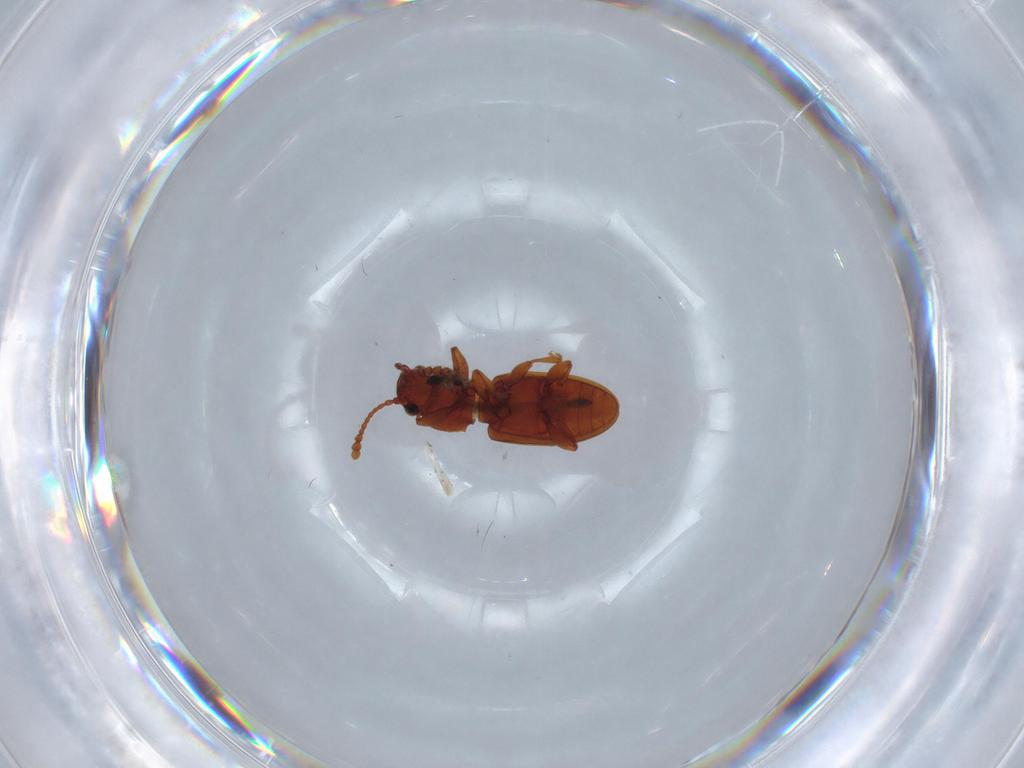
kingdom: Animalia
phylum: Arthropoda
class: Insecta
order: Coleoptera
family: Silvanidae
